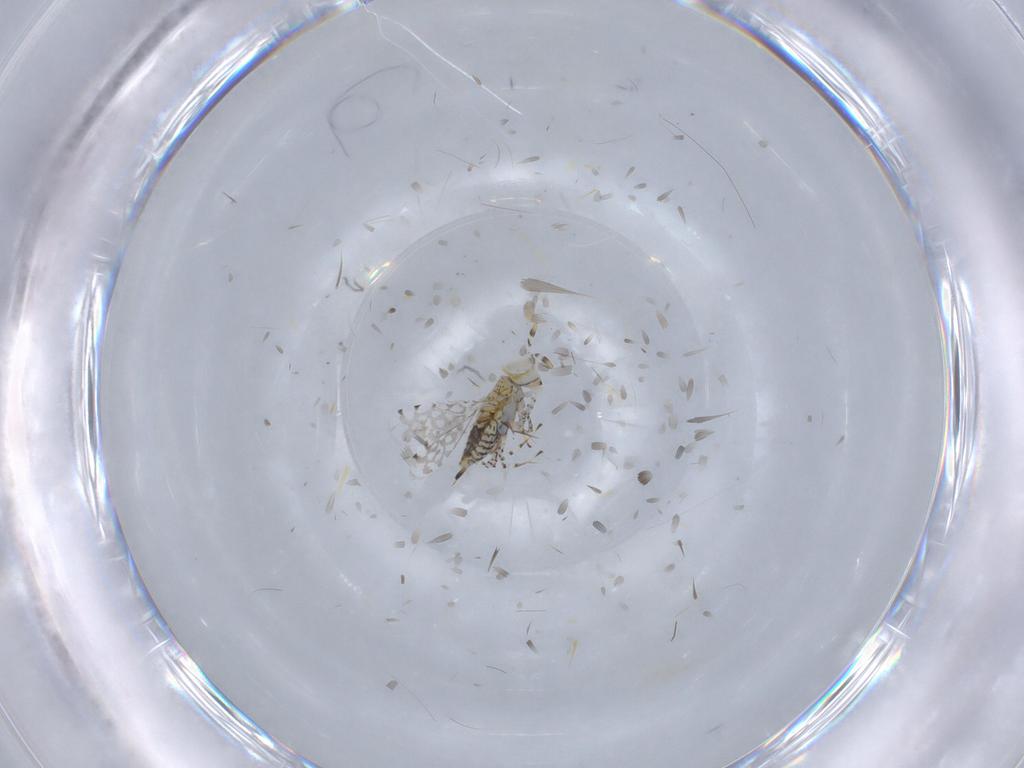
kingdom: Animalia
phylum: Arthropoda
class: Insecta
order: Hymenoptera
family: Aphelinidae
